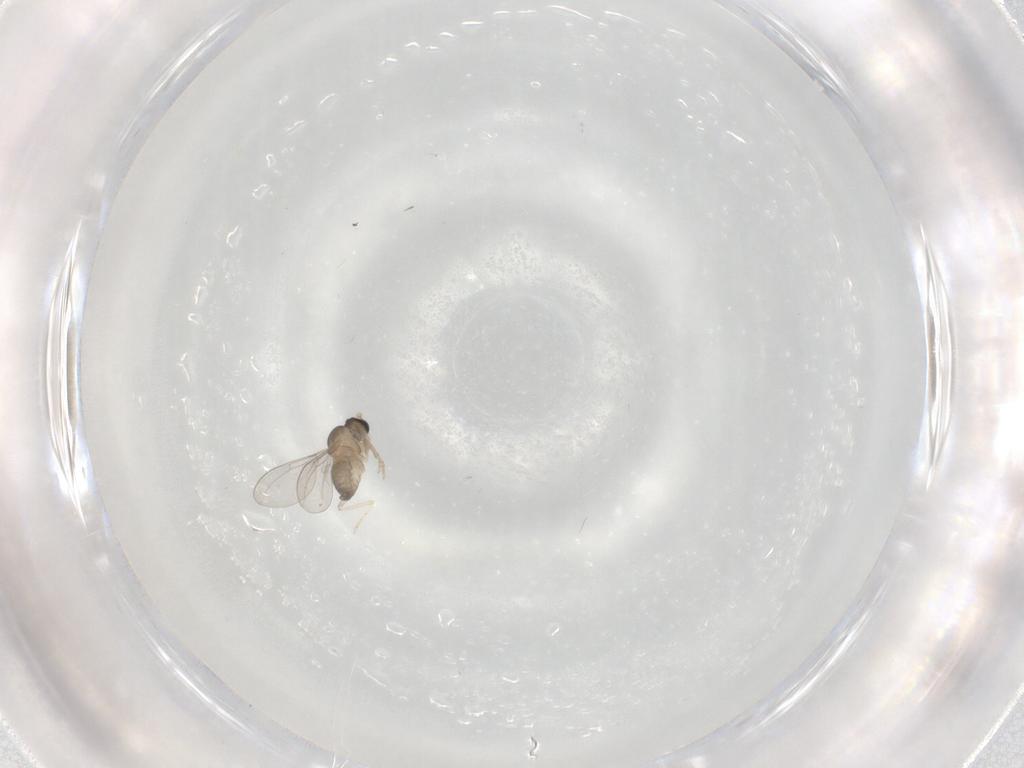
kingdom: Animalia
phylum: Arthropoda
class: Insecta
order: Diptera
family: Cecidomyiidae
